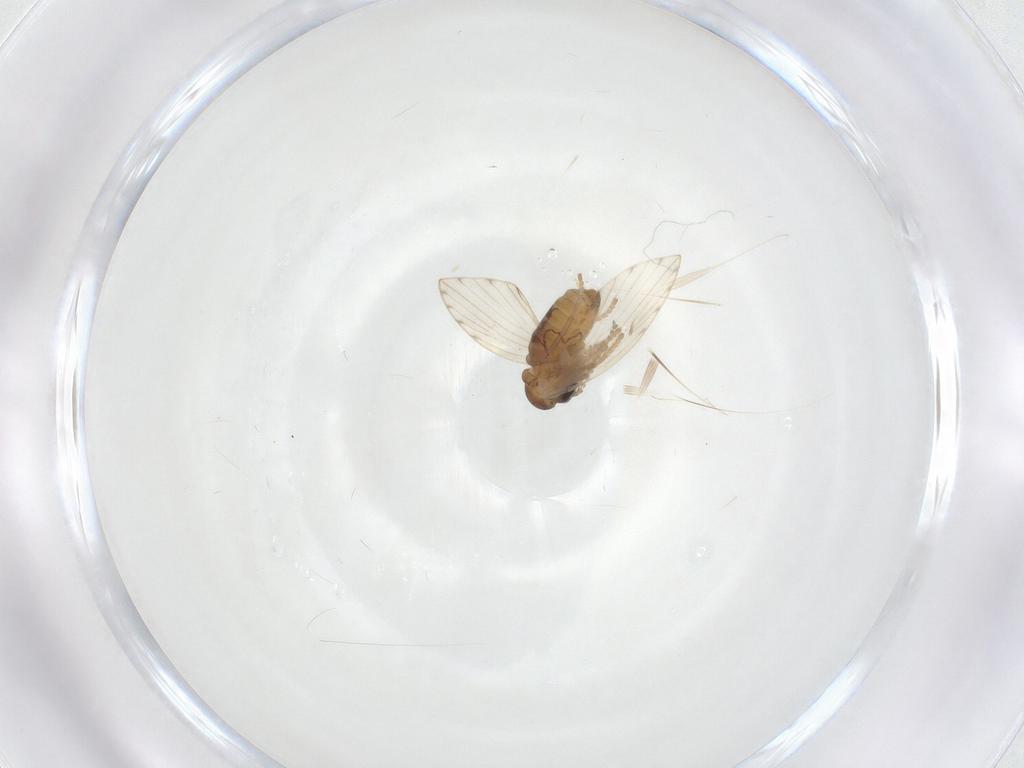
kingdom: Animalia
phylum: Arthropoda
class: Insecta
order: Diptera
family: Psychodidae
